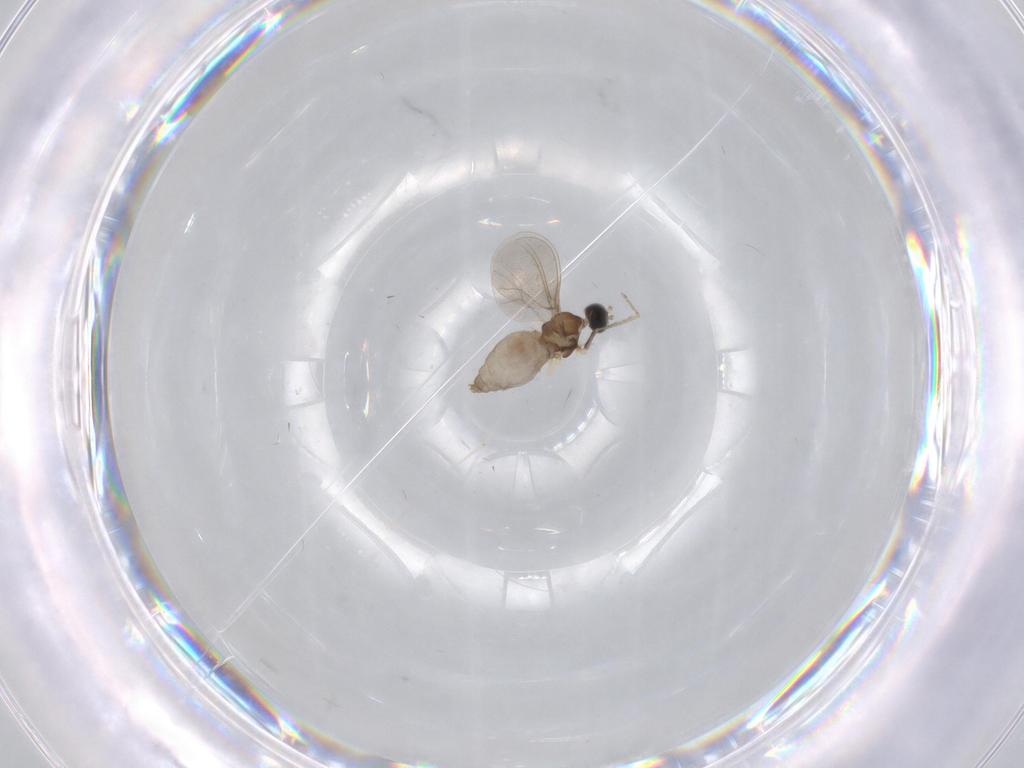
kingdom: Animalia
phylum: Arthropoda
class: Insecta
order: Diptera
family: Cecidomyiidae
